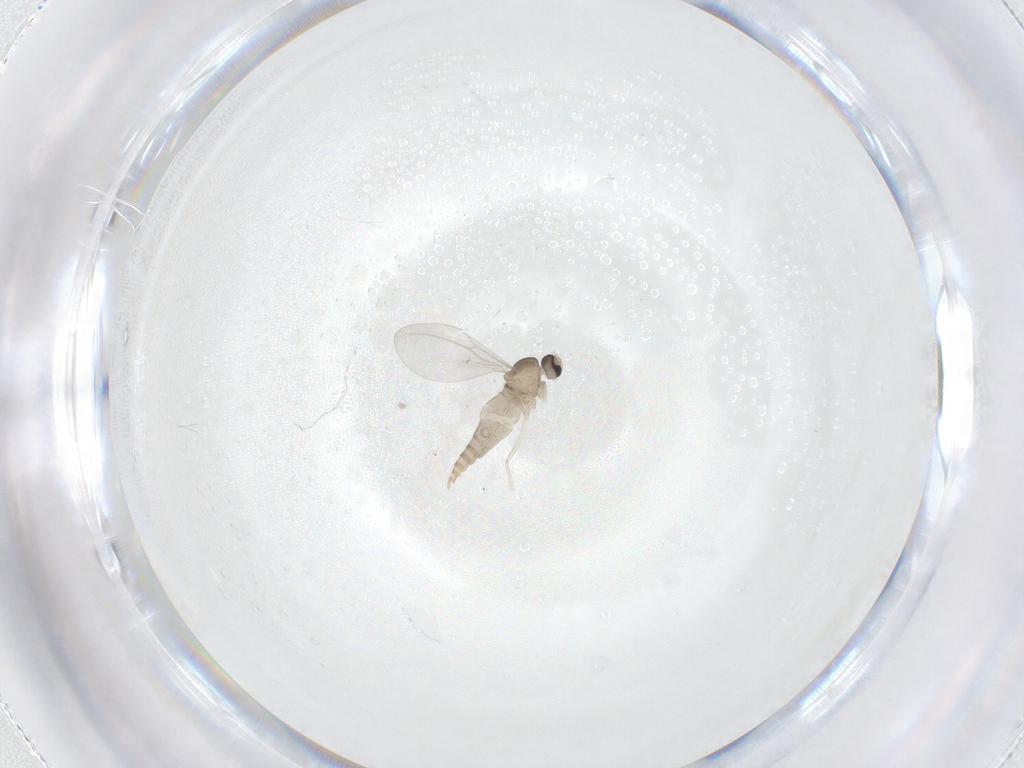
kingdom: Animalia
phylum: Arthropoda
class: Insecta
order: Diptera
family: Cecidomyiidae
